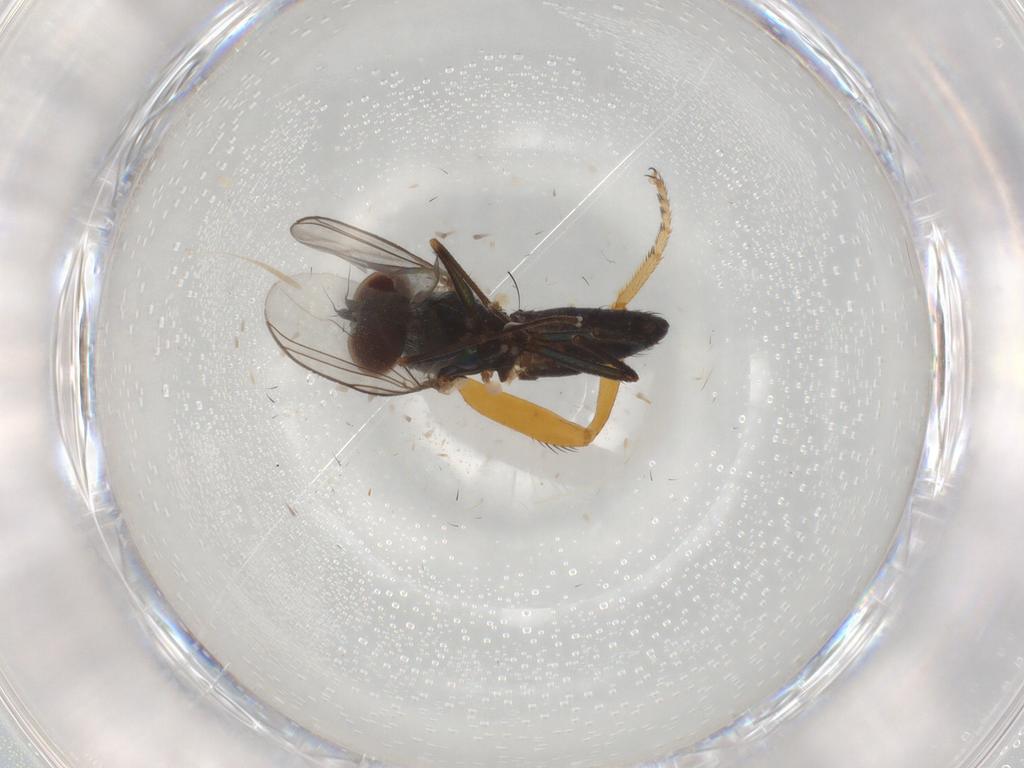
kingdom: Animalia
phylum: Arthropoda
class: Insecta
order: Diptera
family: Dolichopodidae
